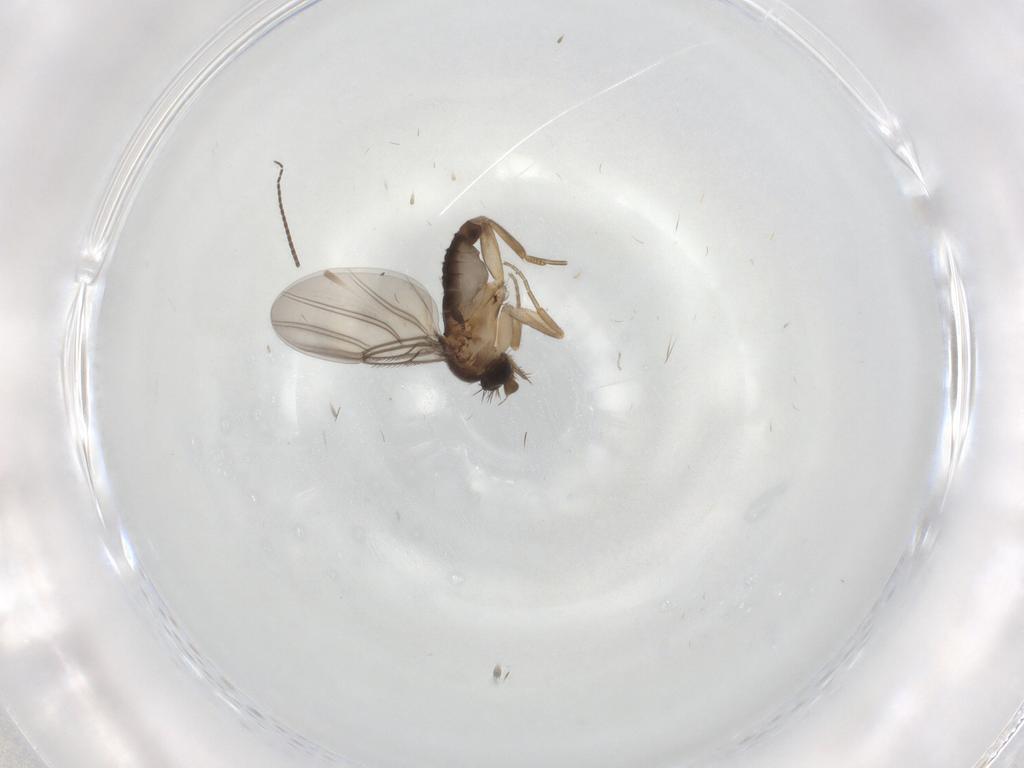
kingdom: Animalia
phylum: Arthropoda
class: Insecta
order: Diptera
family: Phoridae
